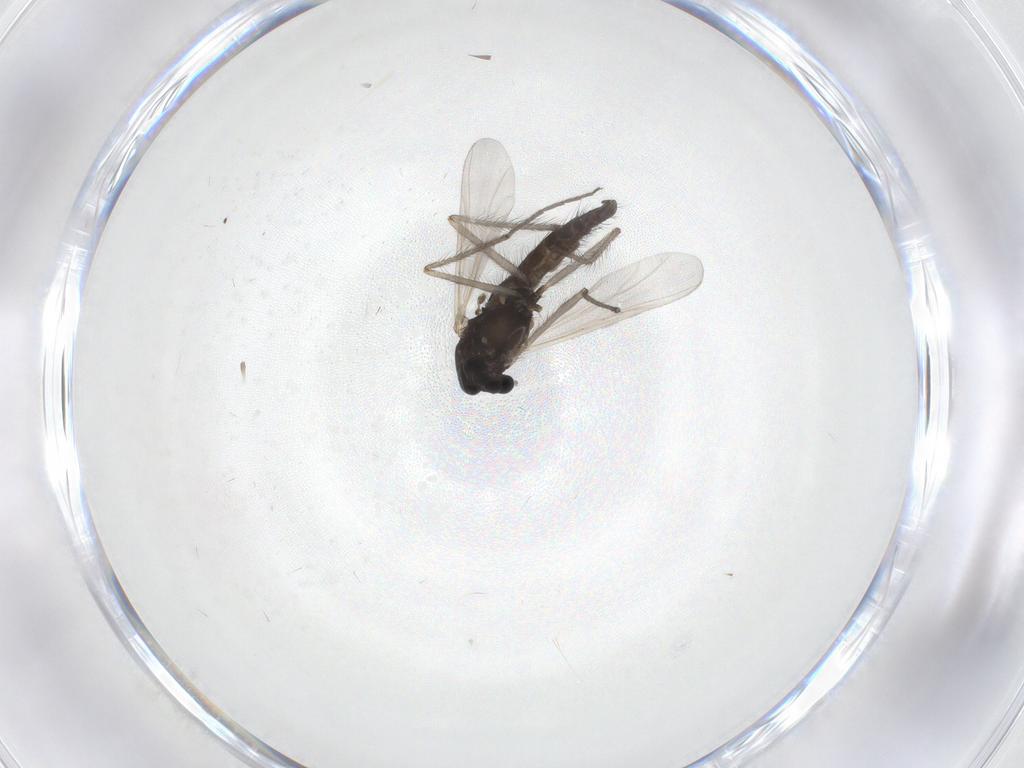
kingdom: Animalia
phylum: Arthropoda
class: Insecta
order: Diptera
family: Chironomidae
